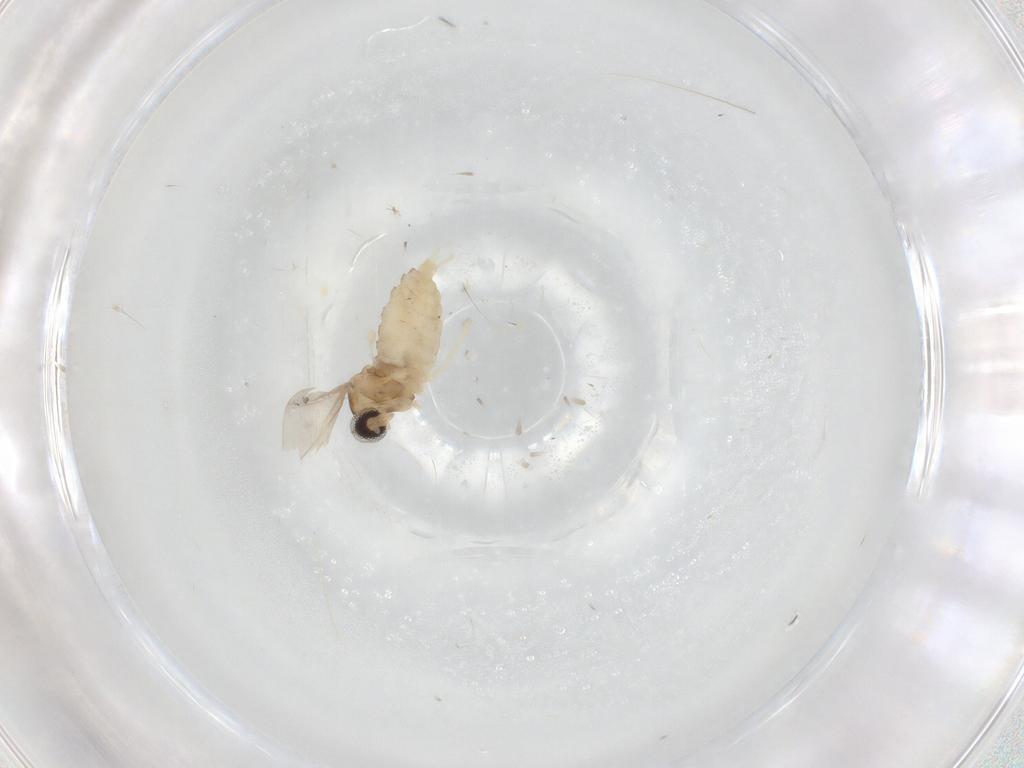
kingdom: Animalia
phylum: Arthropoda
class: Insecta
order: Diptera
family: Cecidomyiidae
